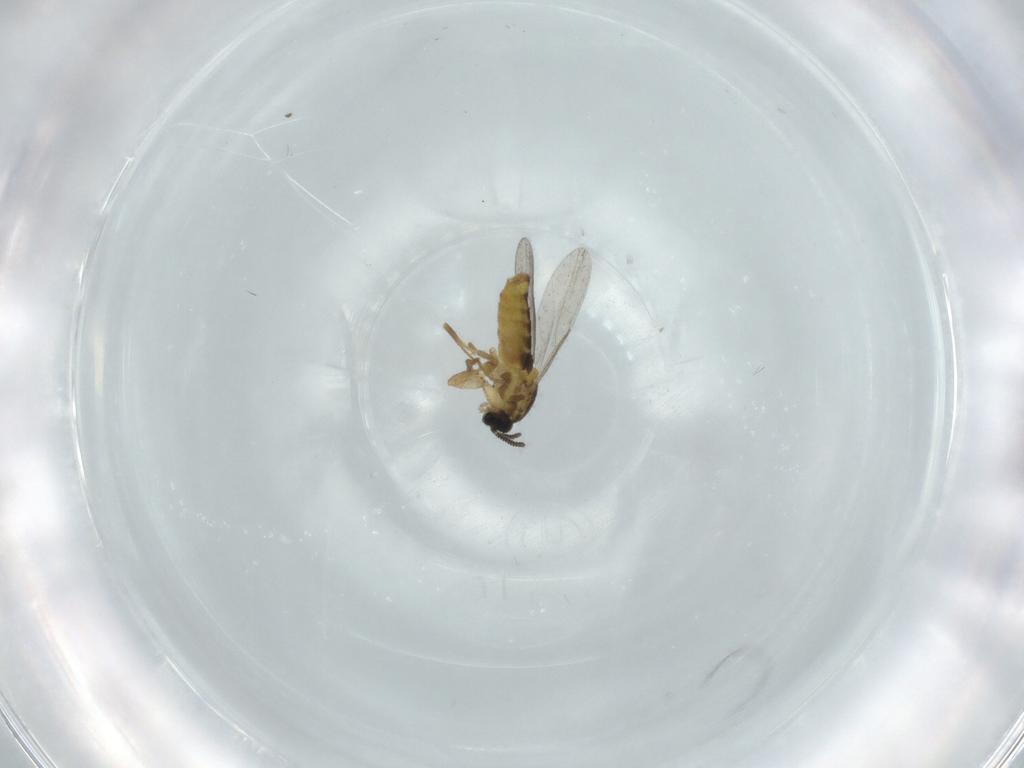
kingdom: Animalia
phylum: Arthropoda
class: Insecta
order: Diptera
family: Scatopsidae
